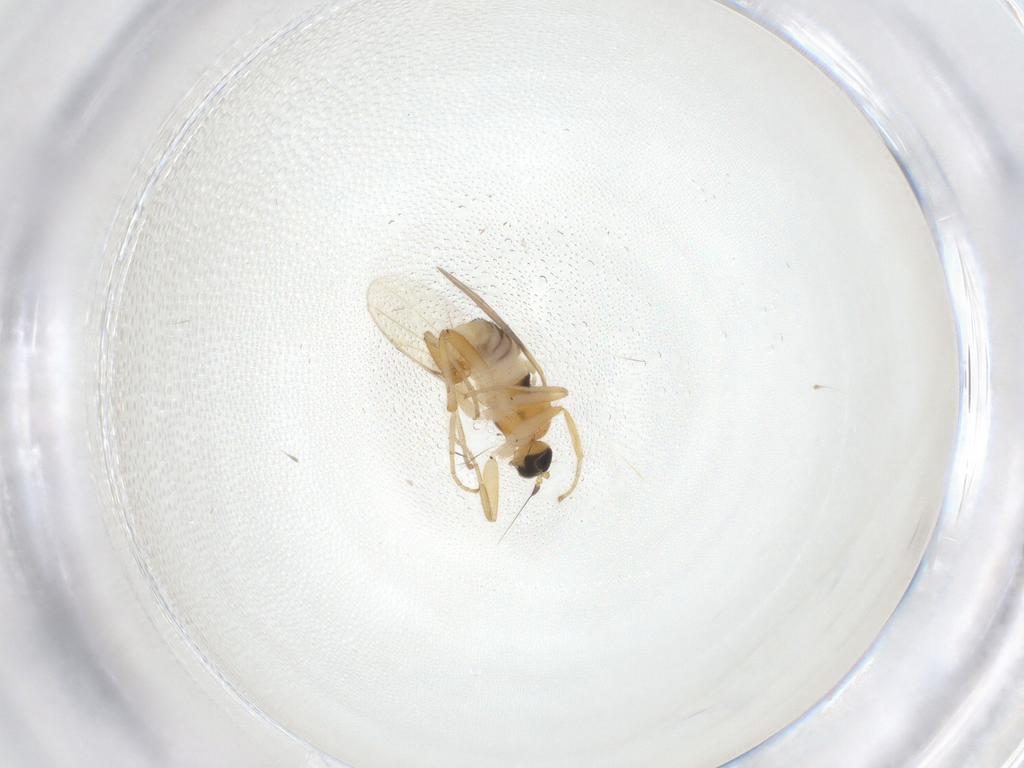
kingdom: Animalia
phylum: Arthropoda
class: Insecta
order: Diptera
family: Hybotidae
